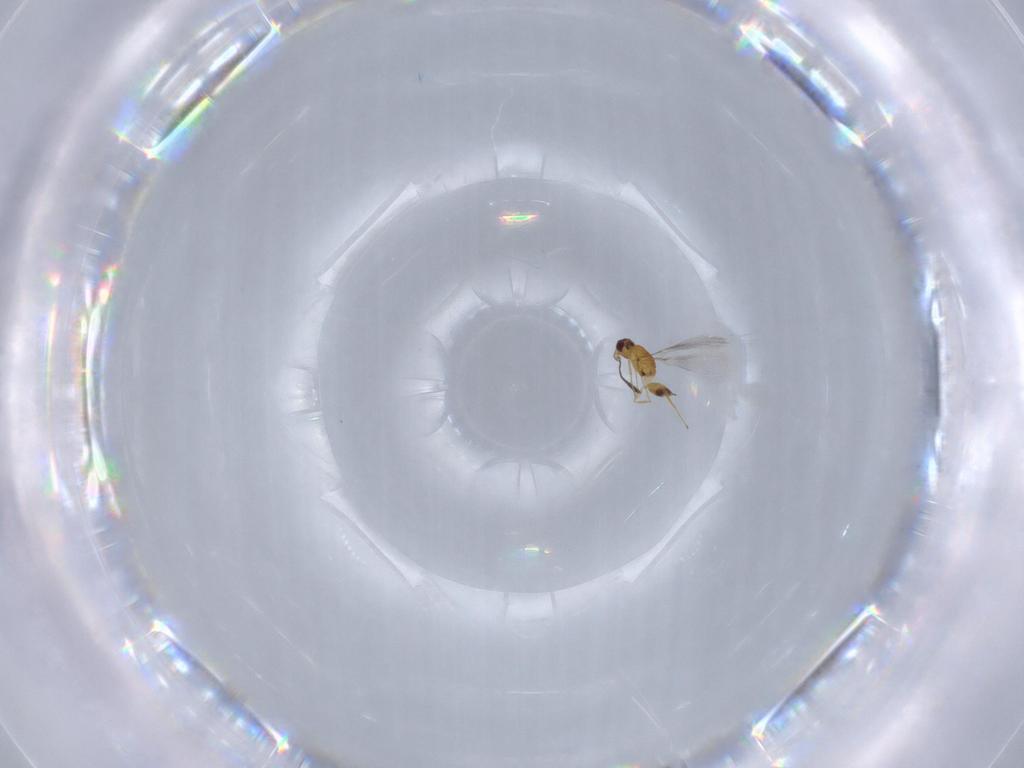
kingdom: Animalia
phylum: Arthropoda
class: Insecta
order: Hymenoptera
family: Mymaridae
